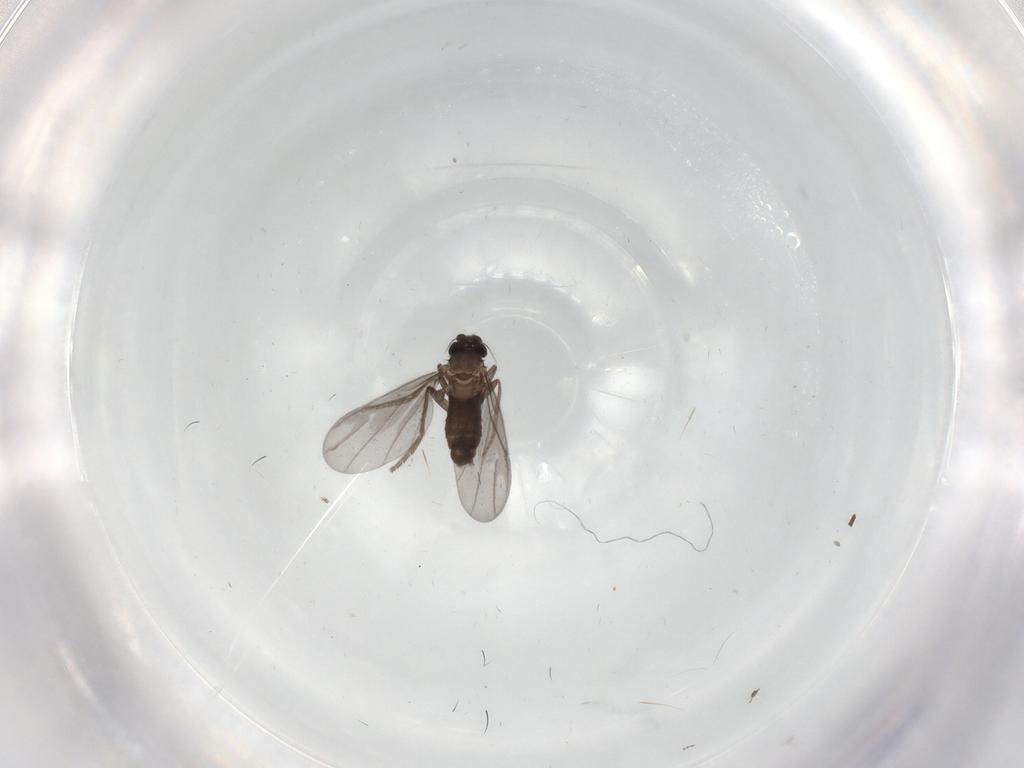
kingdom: Animalia
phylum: Arthropoda
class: Insecta
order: Diptera
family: Phoridae
